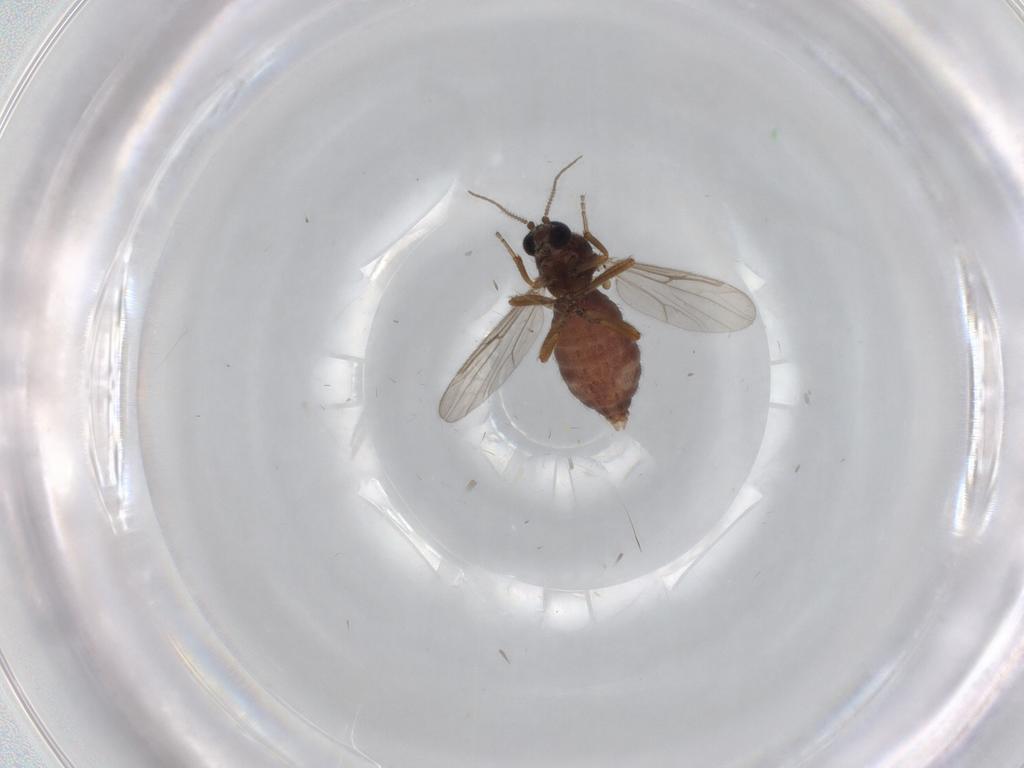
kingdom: Animalia
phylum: Arthropoda
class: Insecta
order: Diptera
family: Ceratopogonidae
